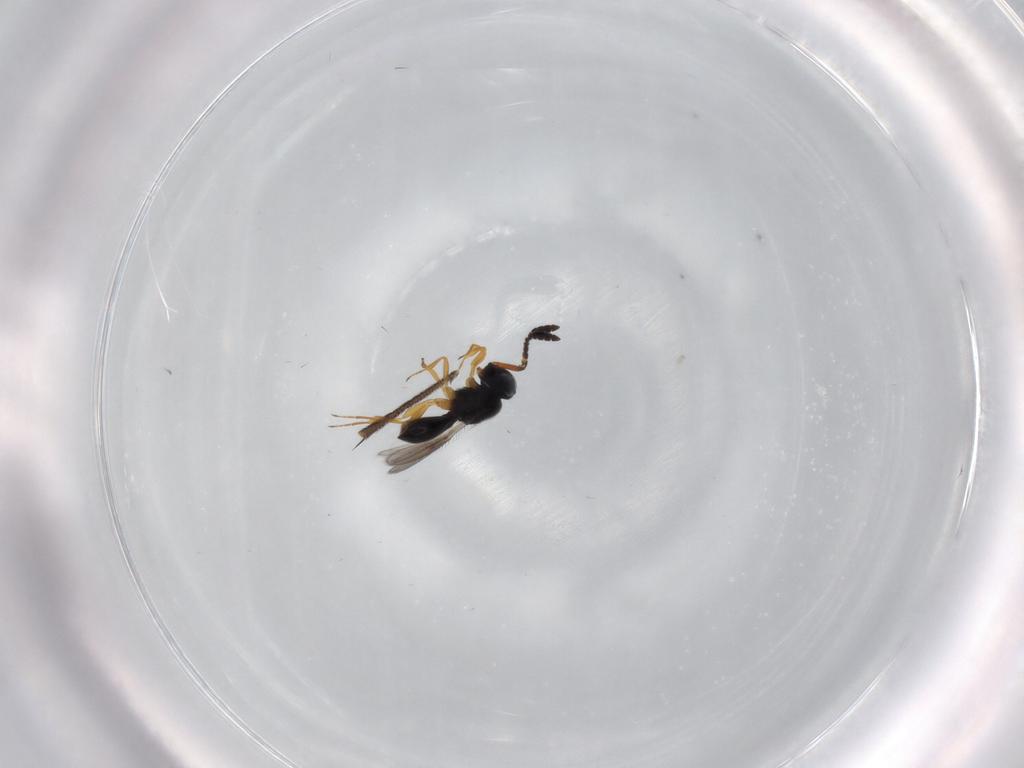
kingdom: Animalia
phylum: Arthropoda
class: Insecta
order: Hymenoptera
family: Scelionidae
